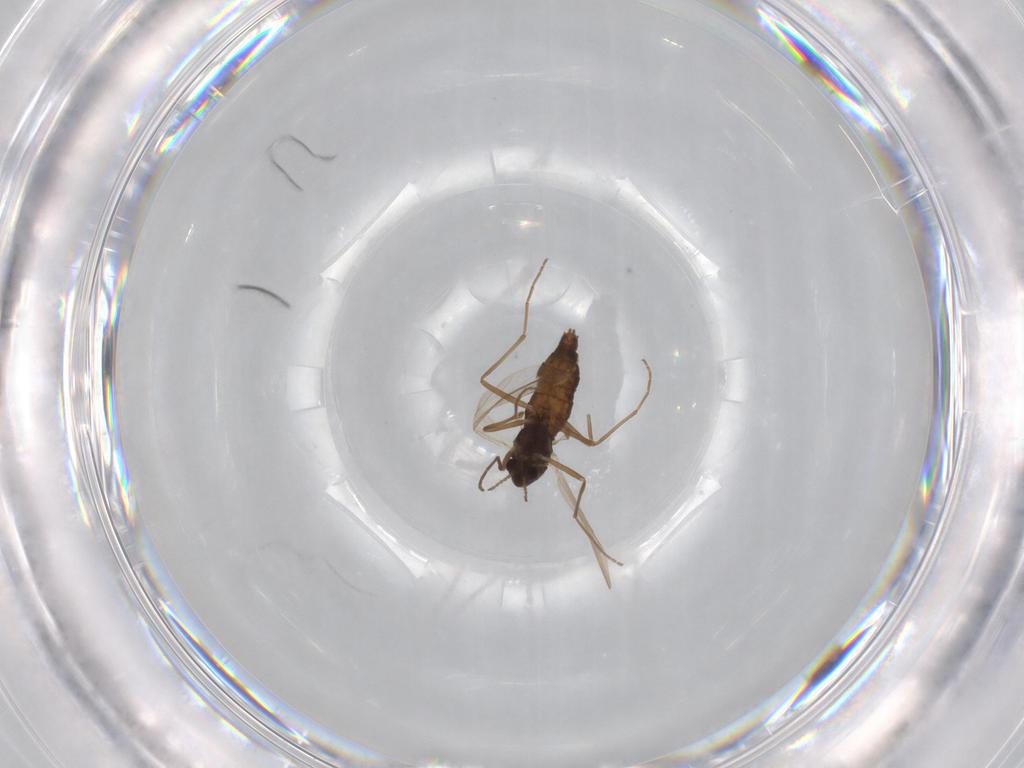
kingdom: Animalia
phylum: Arthropoda
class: Insecta
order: Diptera
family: Chironomidae
